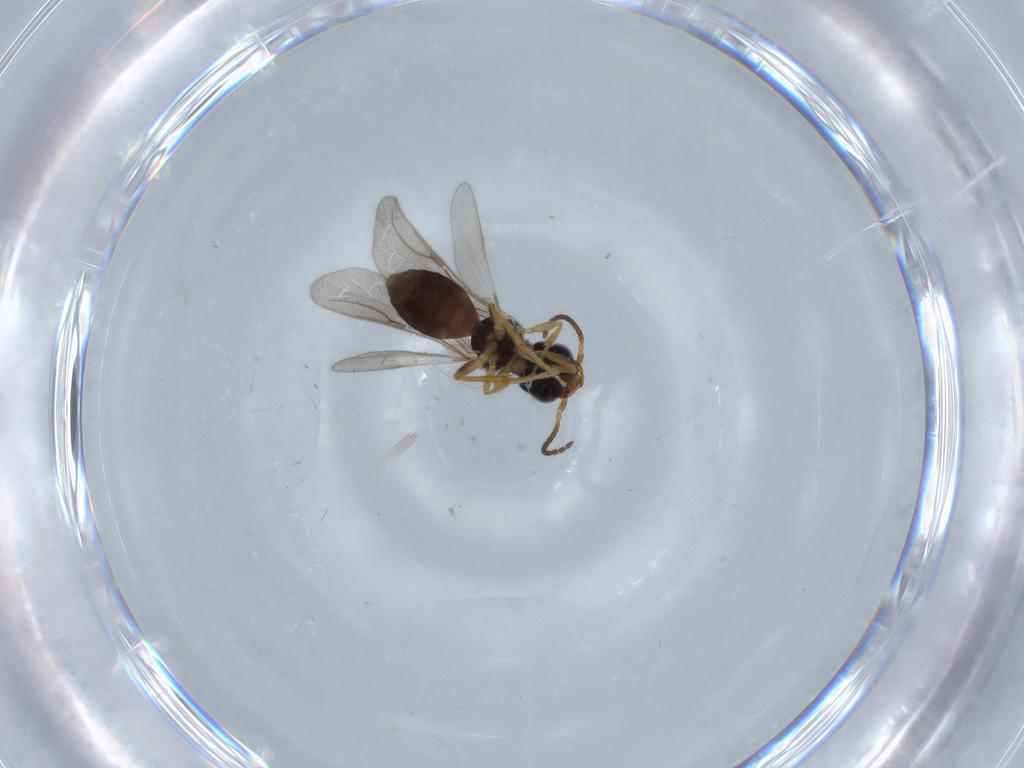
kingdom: Animalia
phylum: Arthropoda
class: Insecta
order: Hymenoptera
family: Bethylidae
